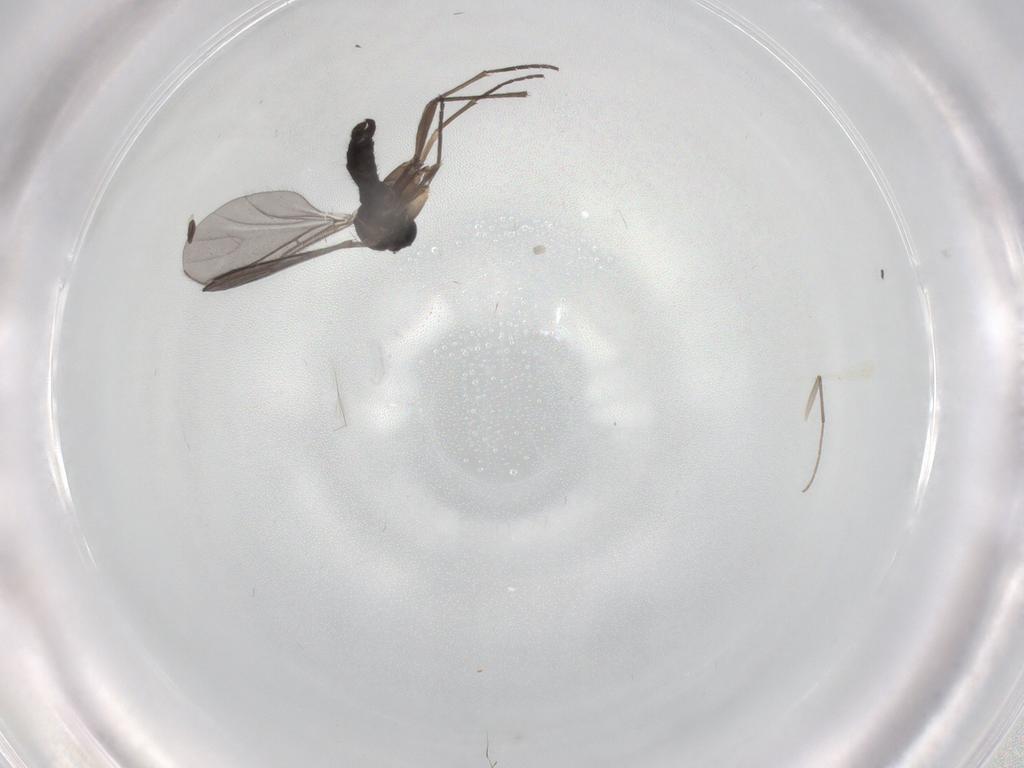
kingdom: Animalia
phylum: Arthropoda
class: Insecta
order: Diptera
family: Chironomidae
